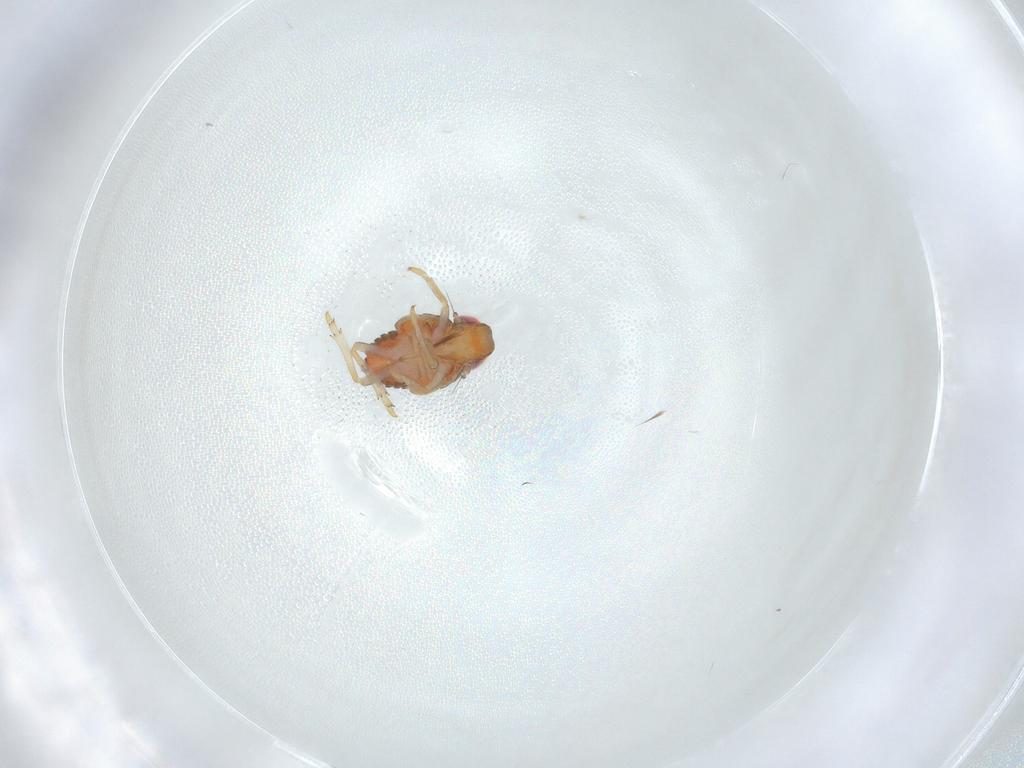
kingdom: Animalia
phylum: Arthropoda
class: Insecta
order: Hemiptera
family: Issidae
